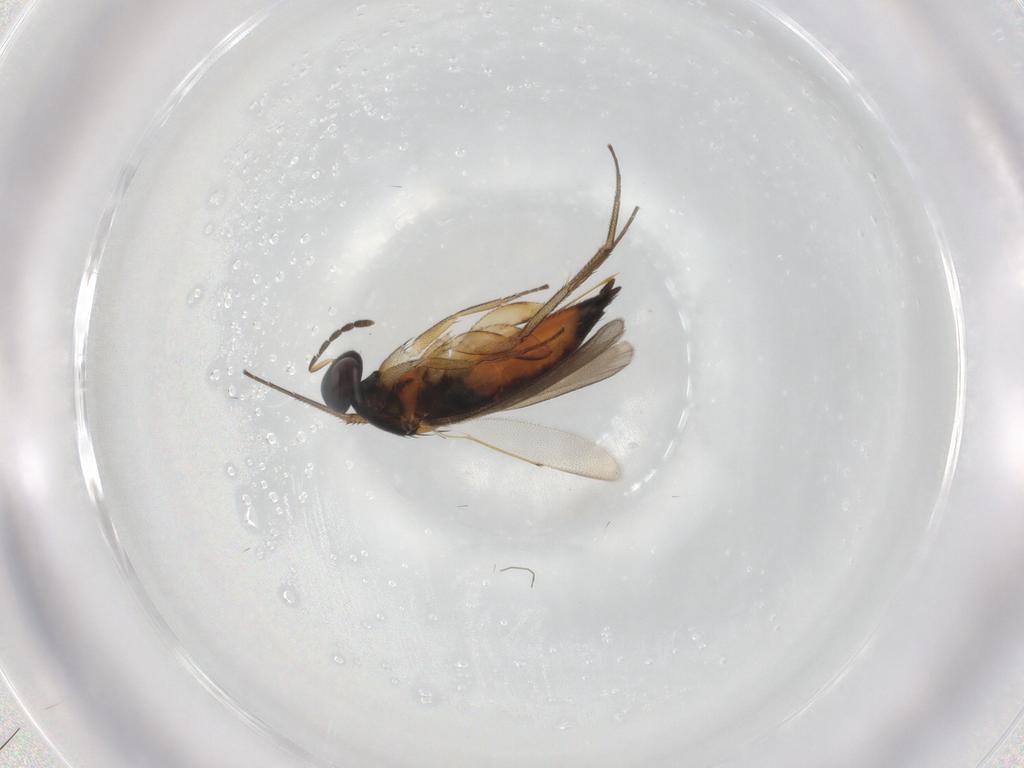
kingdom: Animalia
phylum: Arthropoda
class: Insecta
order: Hymenoptera
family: Eulophidae
